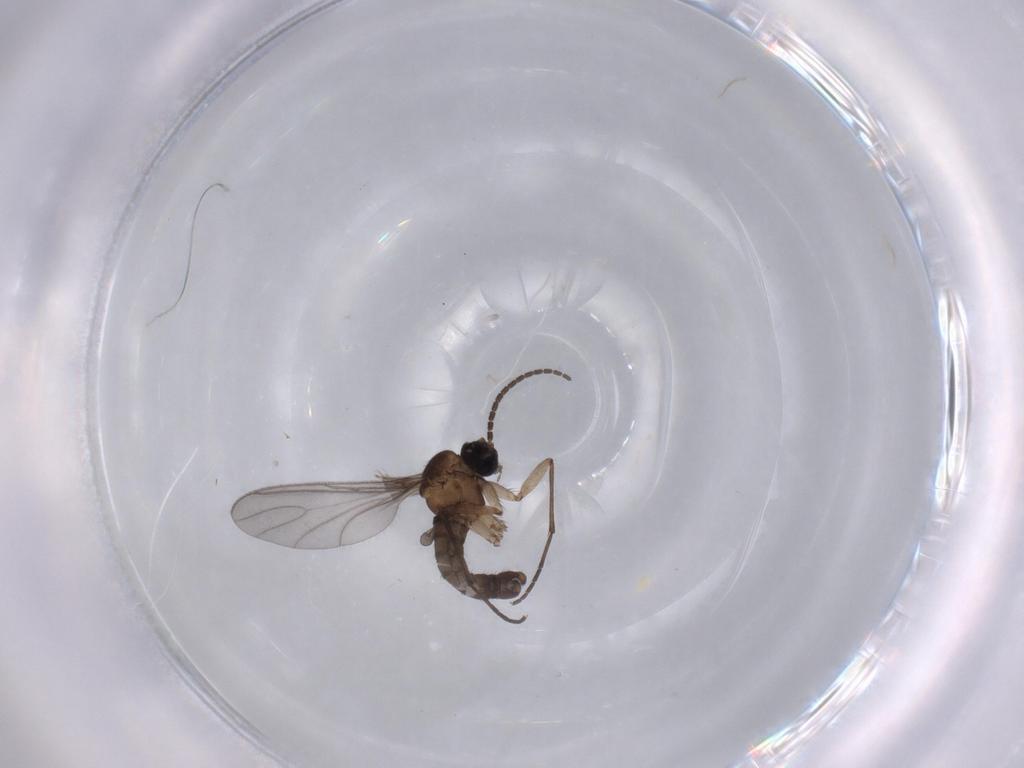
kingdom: Animalia
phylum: Arthropoda
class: Insecta
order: Diptera
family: Sciaridae
